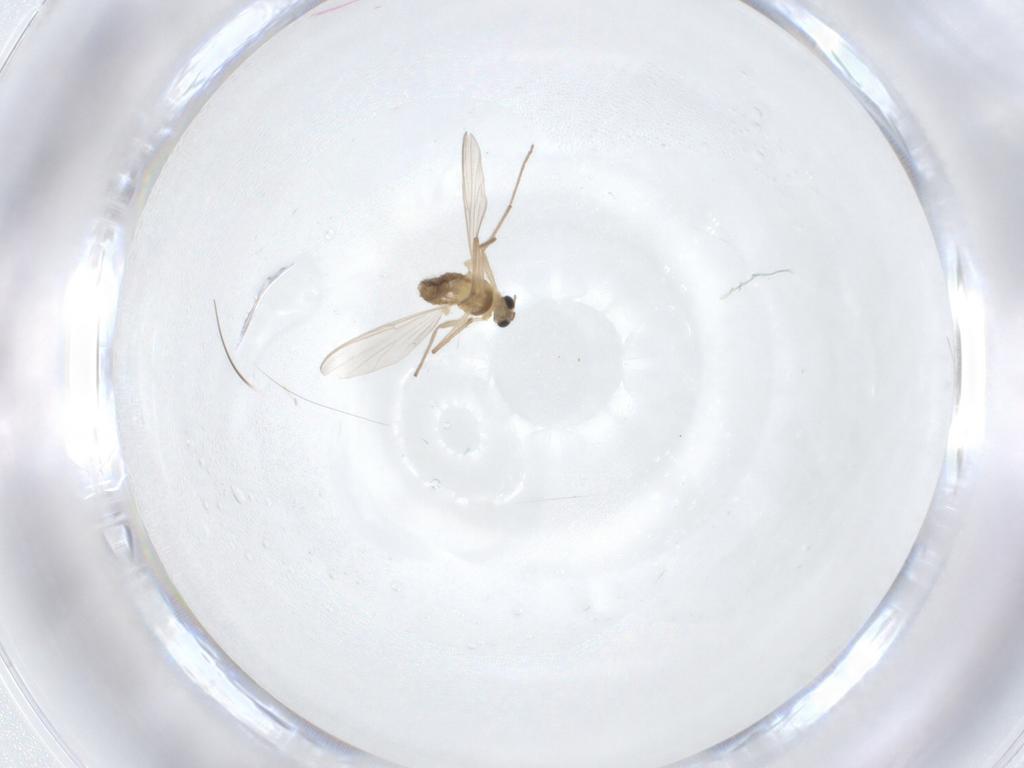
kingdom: Animalia
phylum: Arthropoda
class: Insecta
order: Diptera
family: Chironomidae
